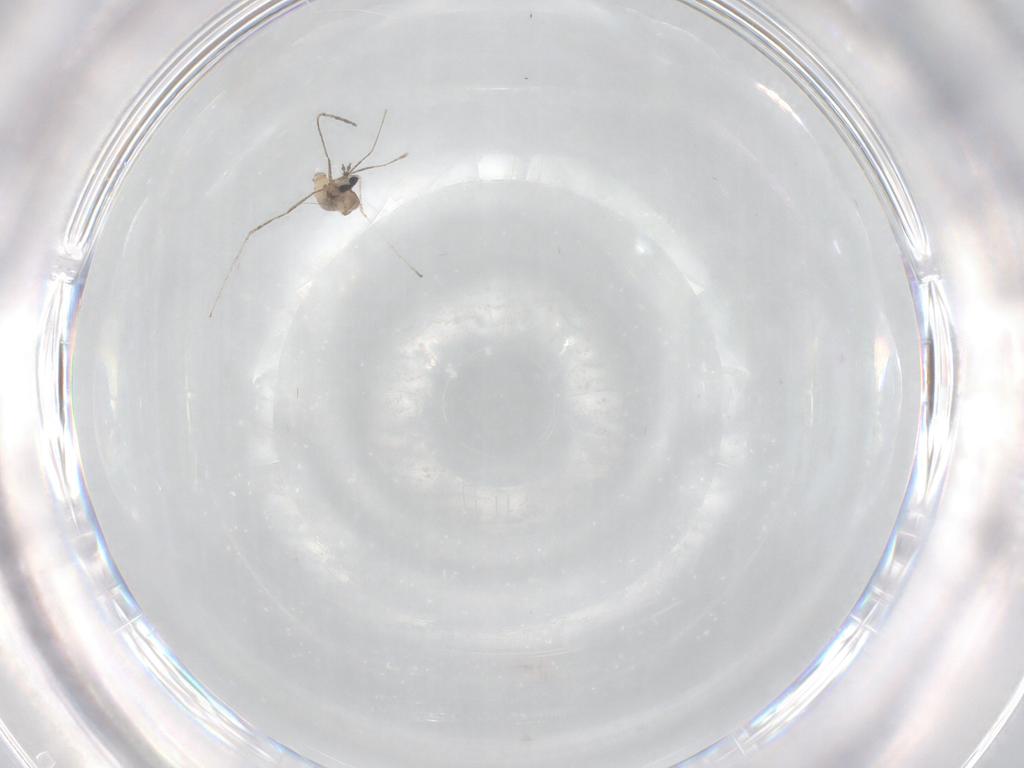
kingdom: Animalia
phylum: Arthropoda
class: Insecta
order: Diptera
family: Cecidomyiidae
